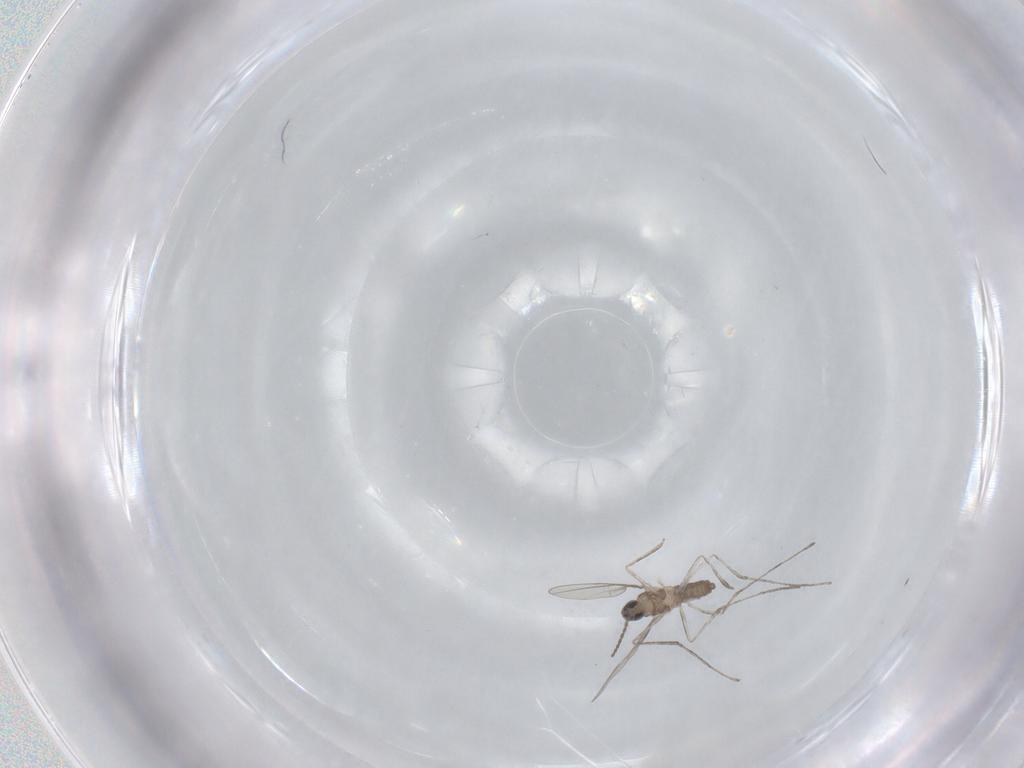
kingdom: Animalia
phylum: Arthropoda
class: Insecta
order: Diptera
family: Cecidomyiidae
